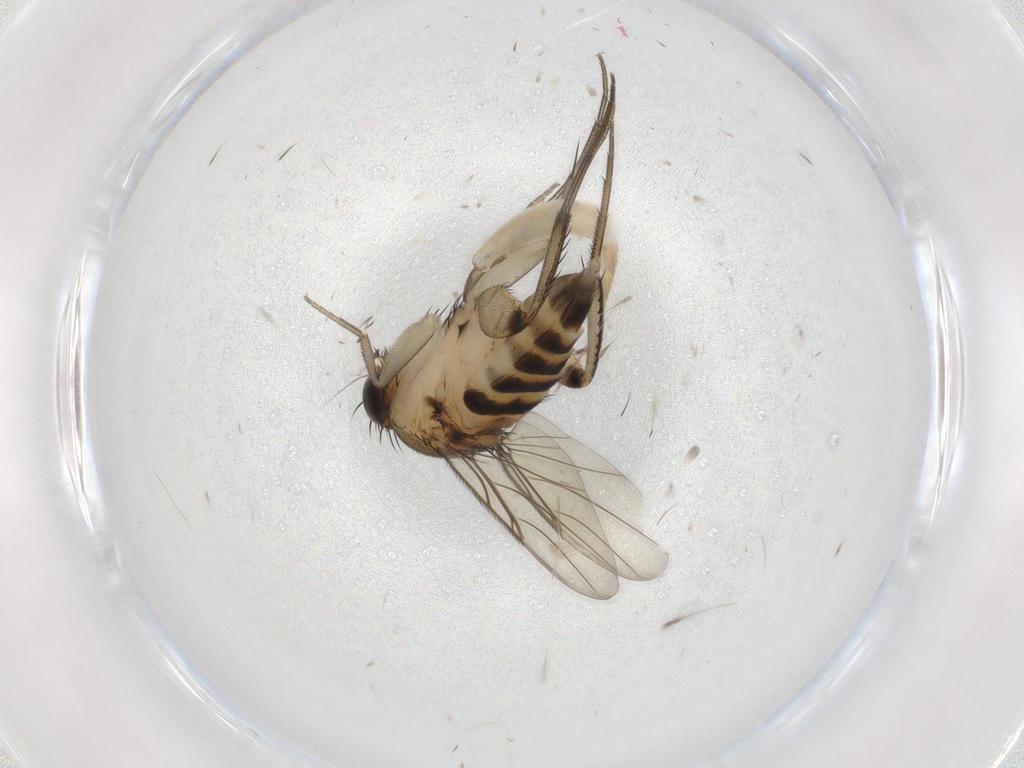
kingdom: Animalia
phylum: Arthropoda
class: Insecta
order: Diptera
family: Phoridae
